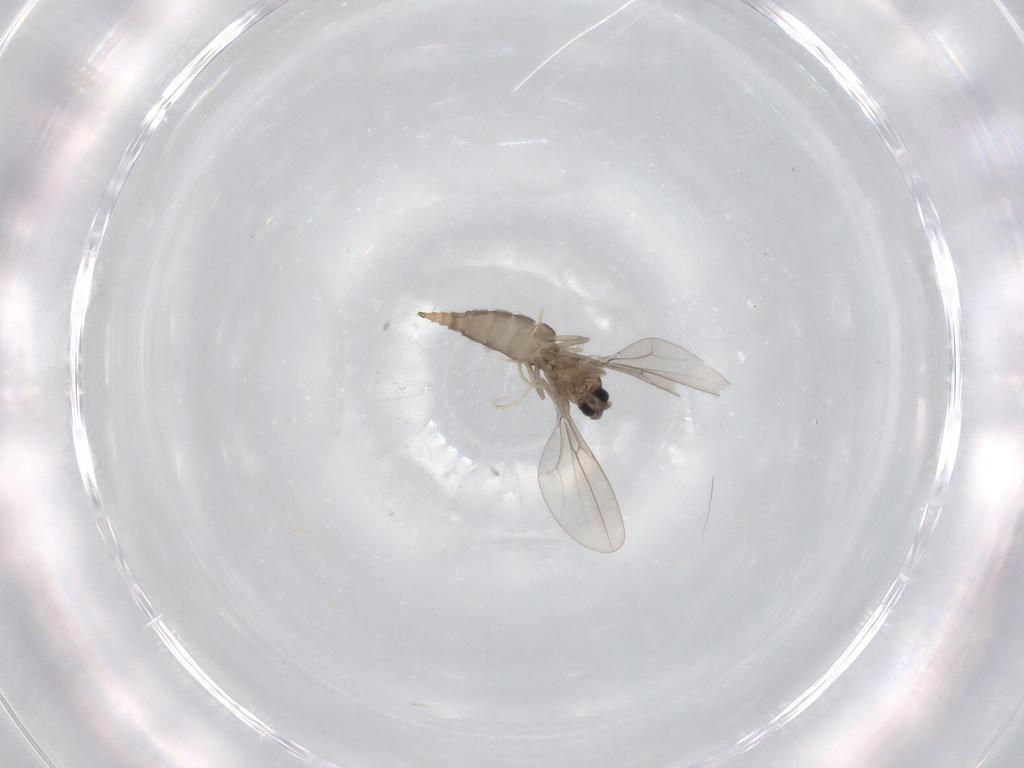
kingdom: Animalia
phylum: Arthropoda
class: Insecta
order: Diptera
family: Cecidomyiidae
